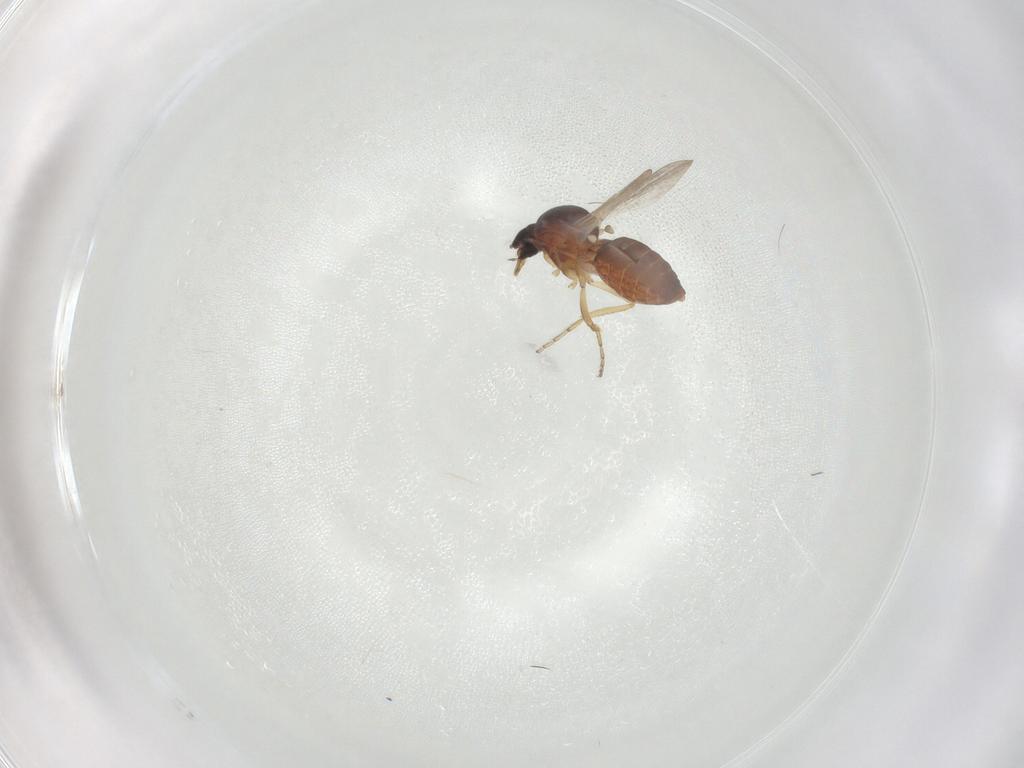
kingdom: Animalia
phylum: Arthropoda
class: Insecta
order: Diptera
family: Ceratopogonidae
